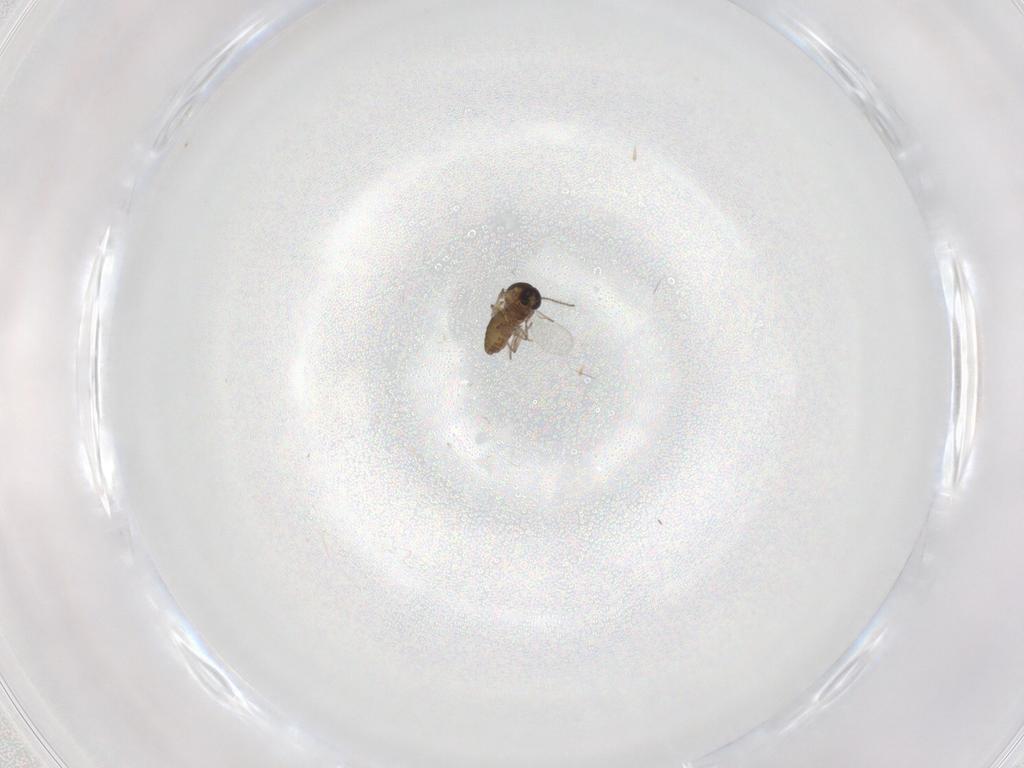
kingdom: Animalia
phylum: Arthropoda
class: Insecta
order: Diptera
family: Ceratopogonidae
